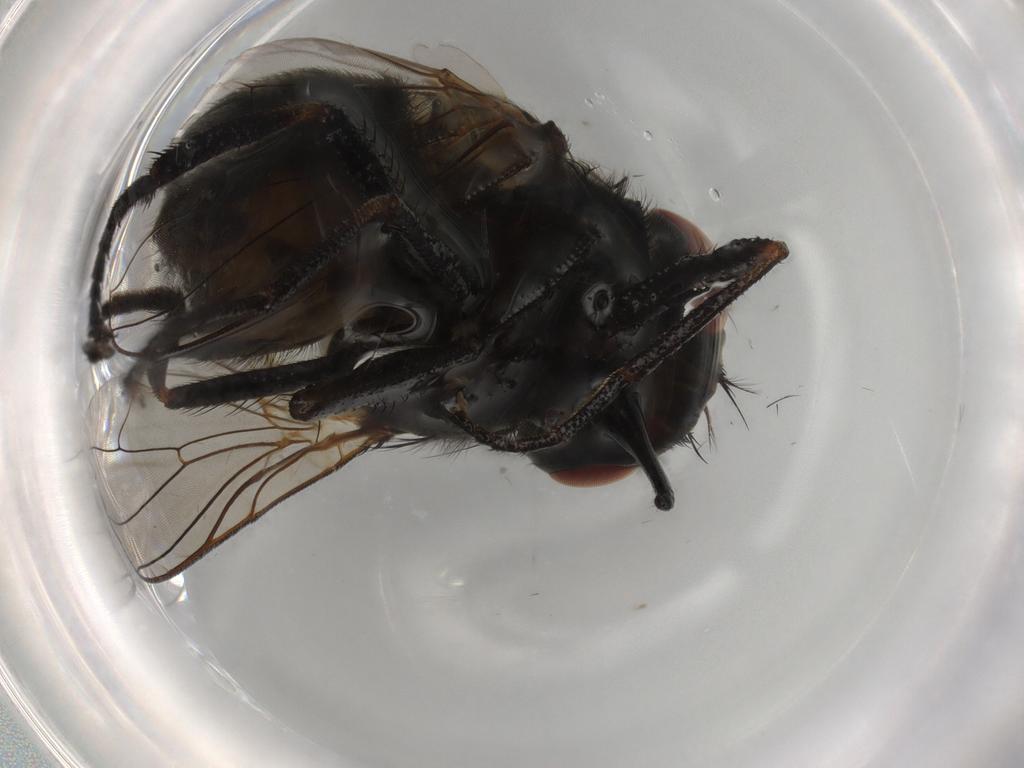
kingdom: Animalia
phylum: Arthropoda
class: Insecta
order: Diptera
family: Muscidae
